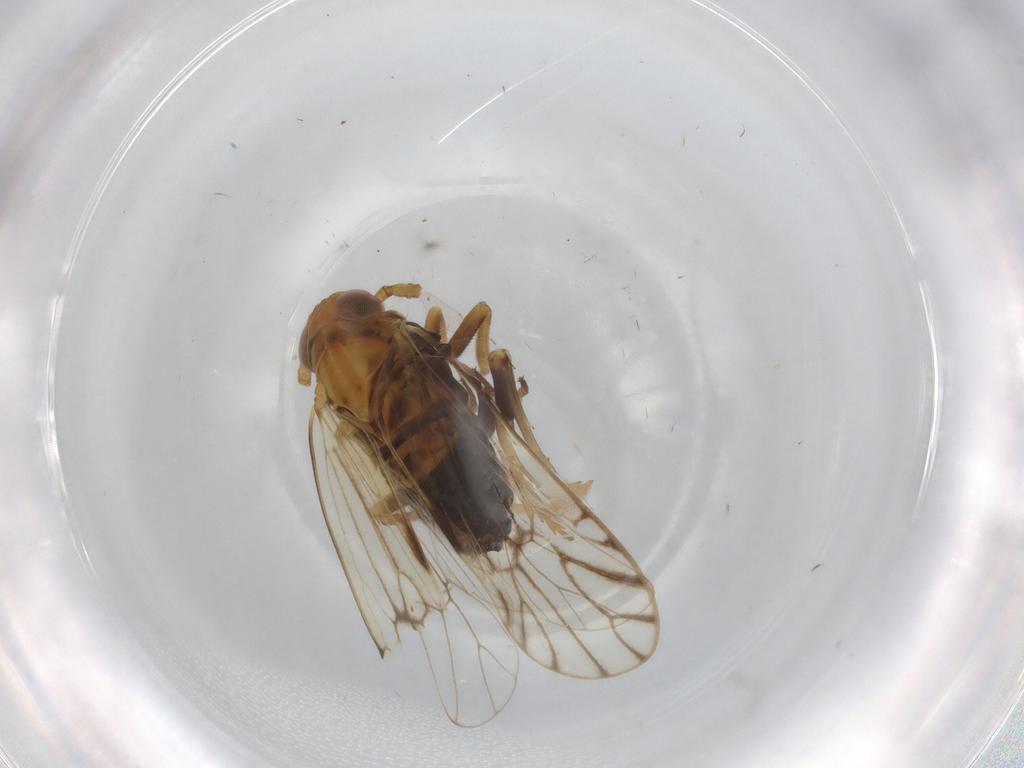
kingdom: Animalia
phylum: Arthropoda
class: Insecta
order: Hemiptera
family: Delphacidae
